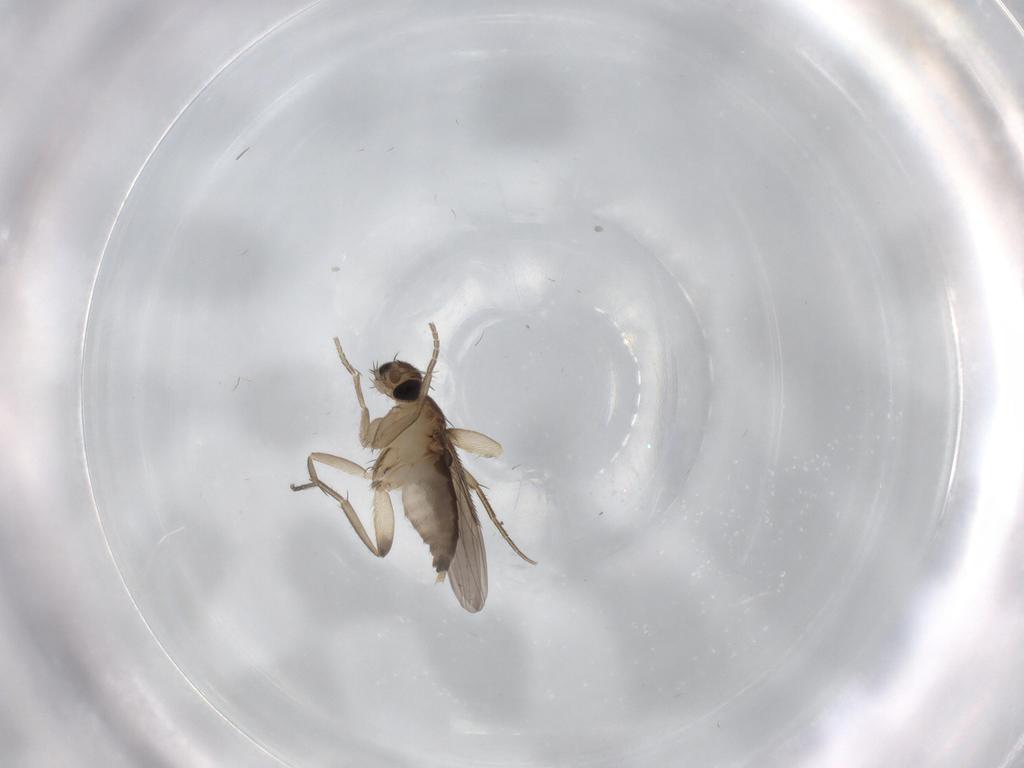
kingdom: Animalia
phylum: Arthropoda
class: Insecta
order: Diptera
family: Phoridae
